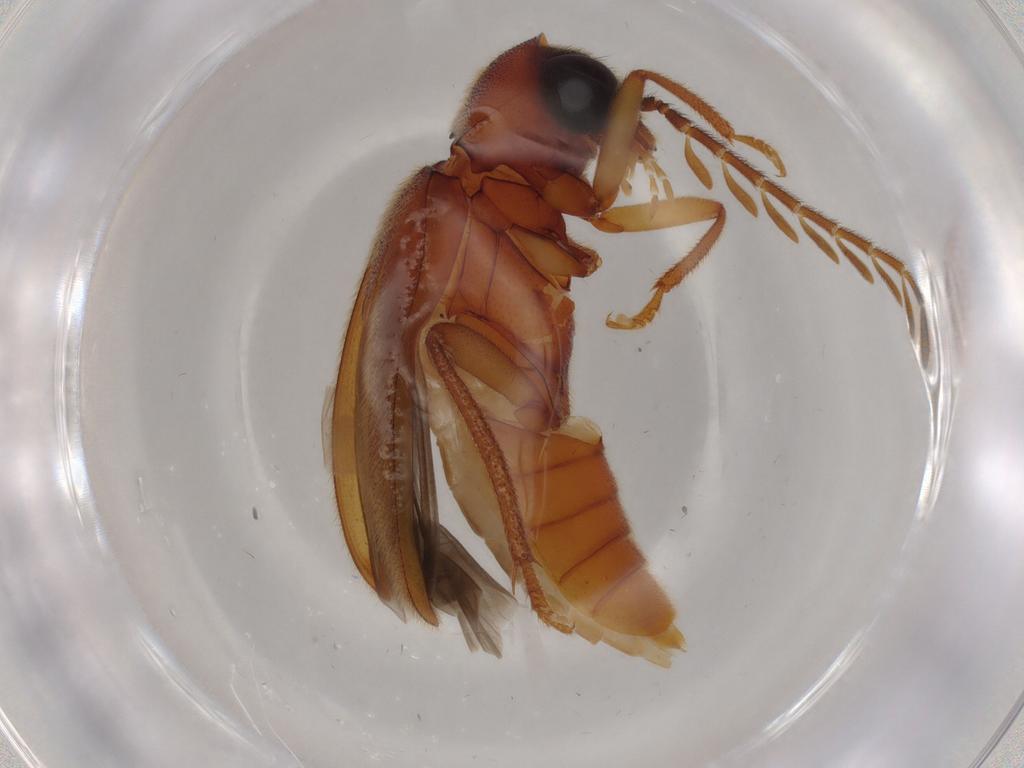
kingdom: Animalia
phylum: Arthropoda
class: Insecta
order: Coleoptera
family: Ptilodactylidae
